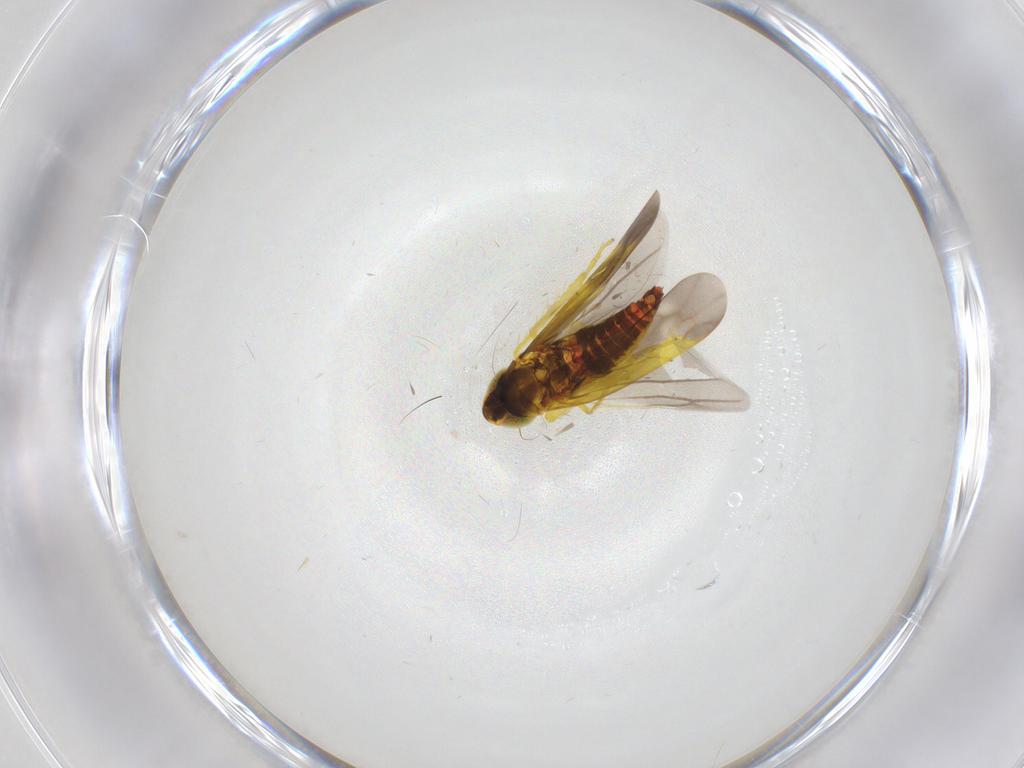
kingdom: Animalia
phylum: Arthropoda
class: Insecta
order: Hemiptera
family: Cicadellidae
